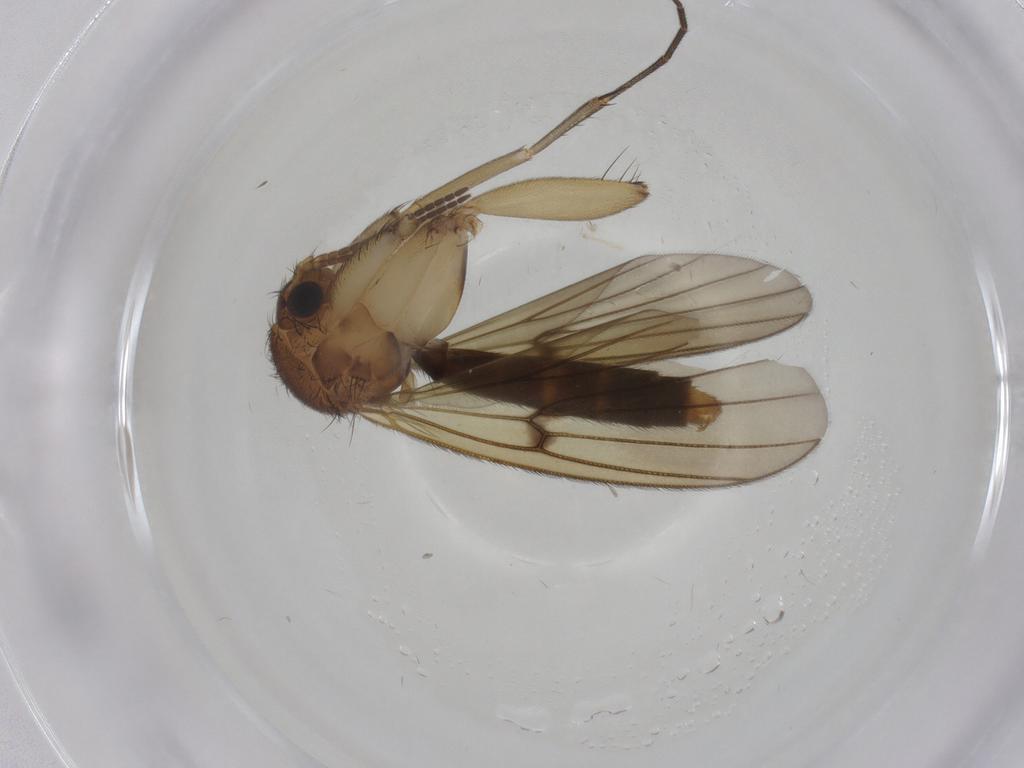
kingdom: Animalia
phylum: Arthropoda
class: Insecta
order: Diptera
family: Mycetophilidae
